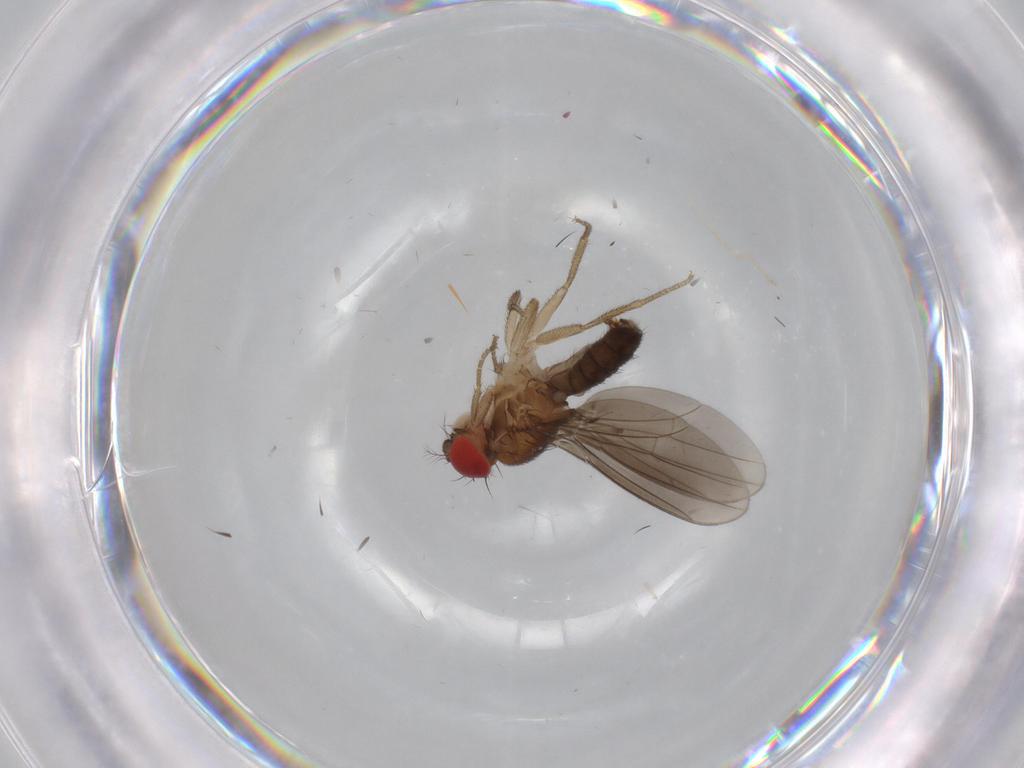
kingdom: Animalia
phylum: Arthropoda
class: Insecta
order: Diptera
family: Drosophilidae
